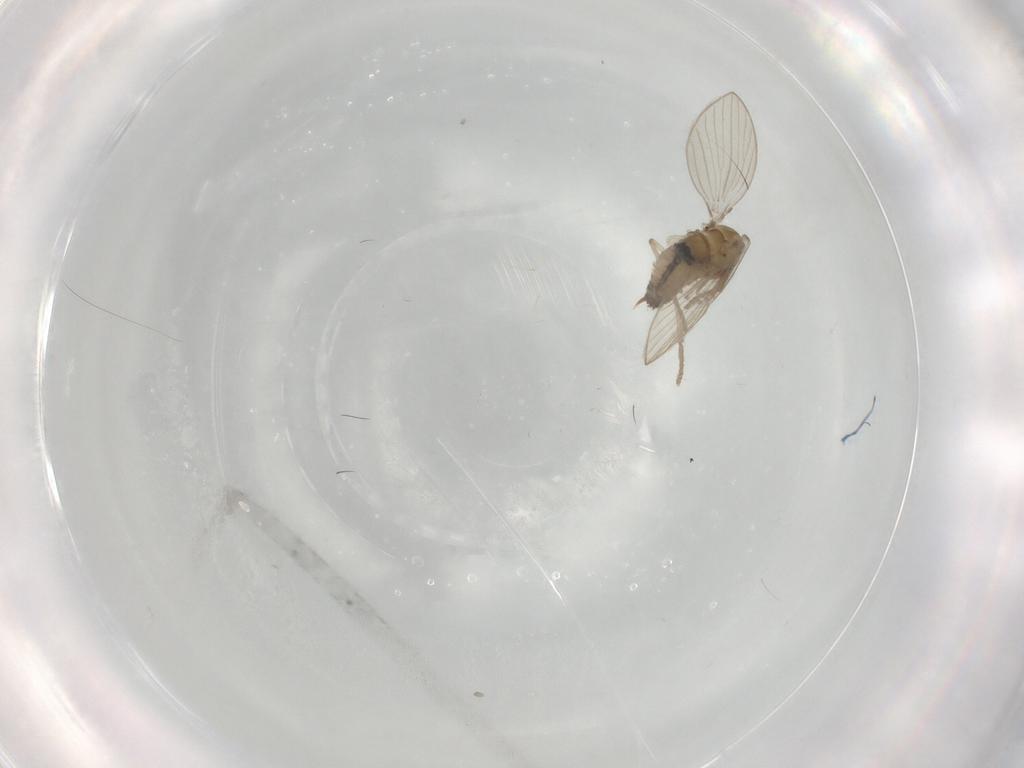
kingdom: Animalia
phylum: Arthropoda
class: Insecta
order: Diptera
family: Psychodidae
